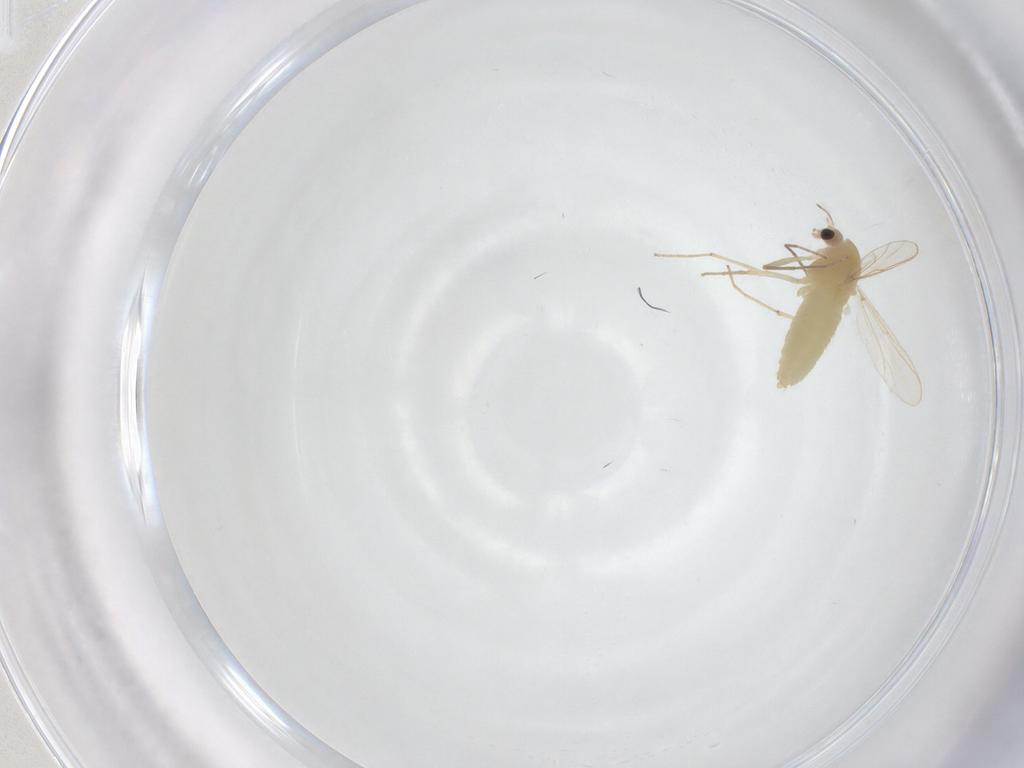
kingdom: Animalia
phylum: Arthropoda
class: Insecta
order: Diptera
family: Chironomidae
